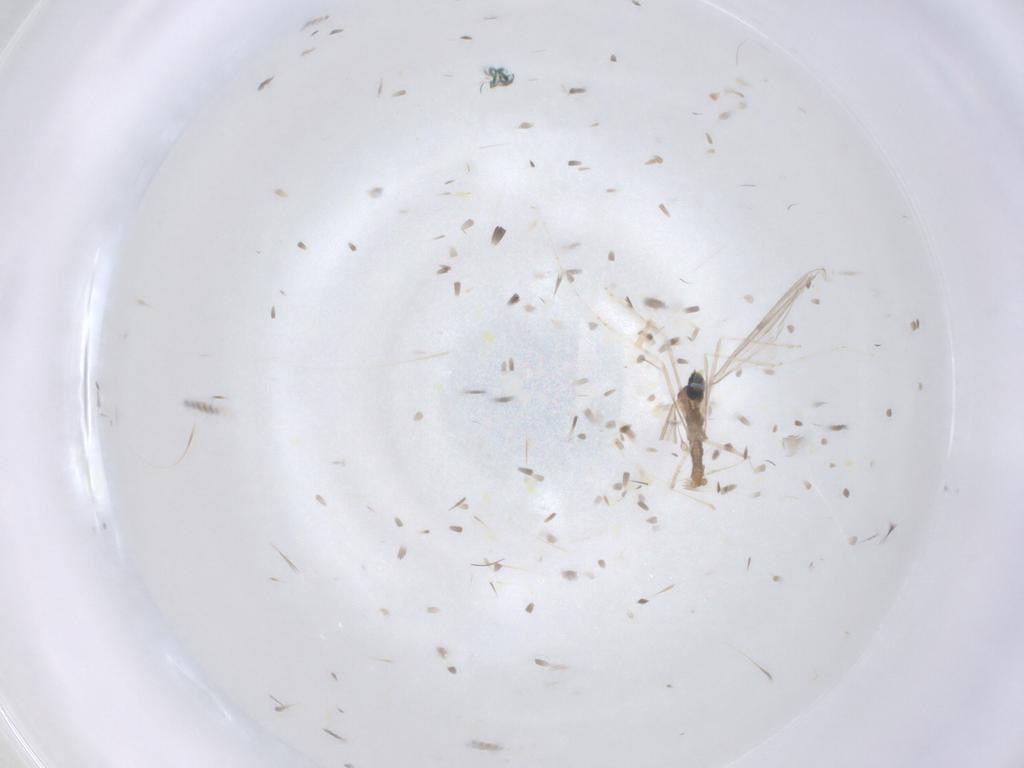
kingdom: Animalia
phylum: Arthropoda
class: Insecta
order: Diptera
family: Cecidomyiidae
